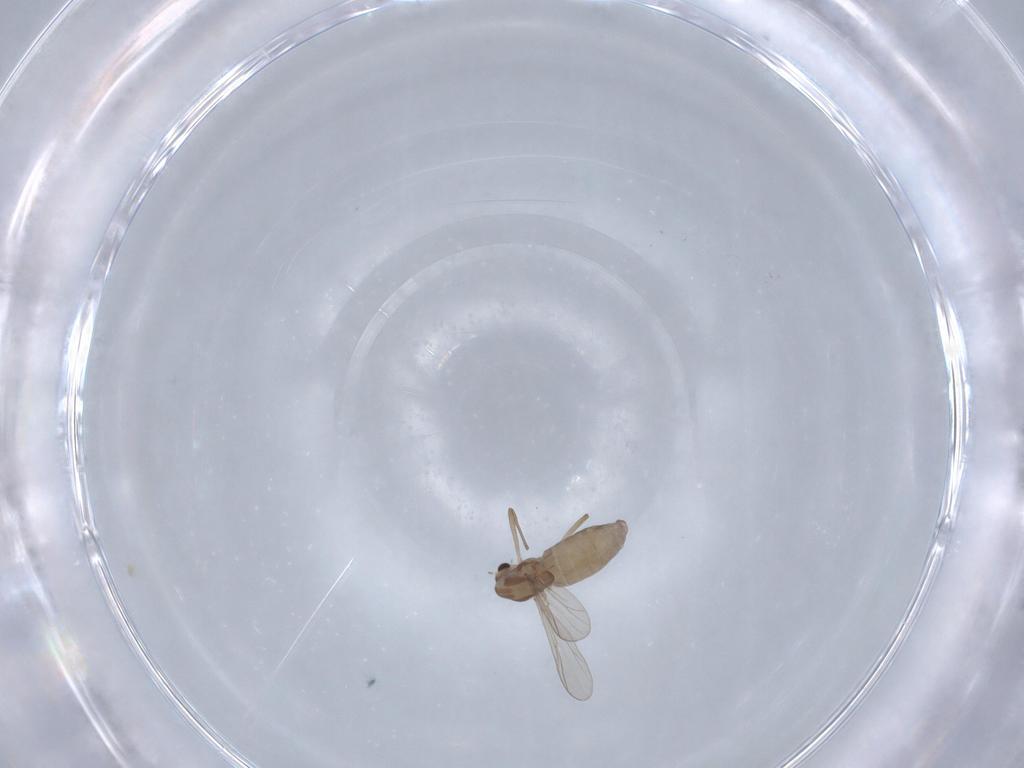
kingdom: Animalia
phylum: Arthropoda
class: Insecta
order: Diptera
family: Chironomidae
